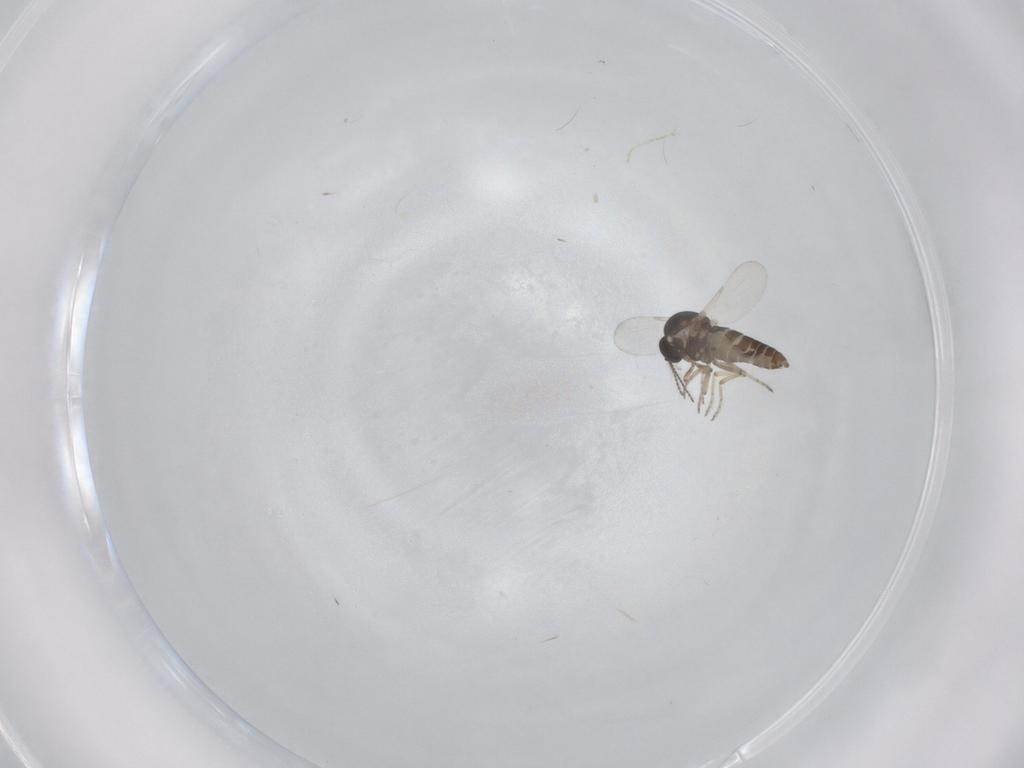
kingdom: Animalia
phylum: Arthropoda
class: Insecta
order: Diptera
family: Ceratopogonidae
